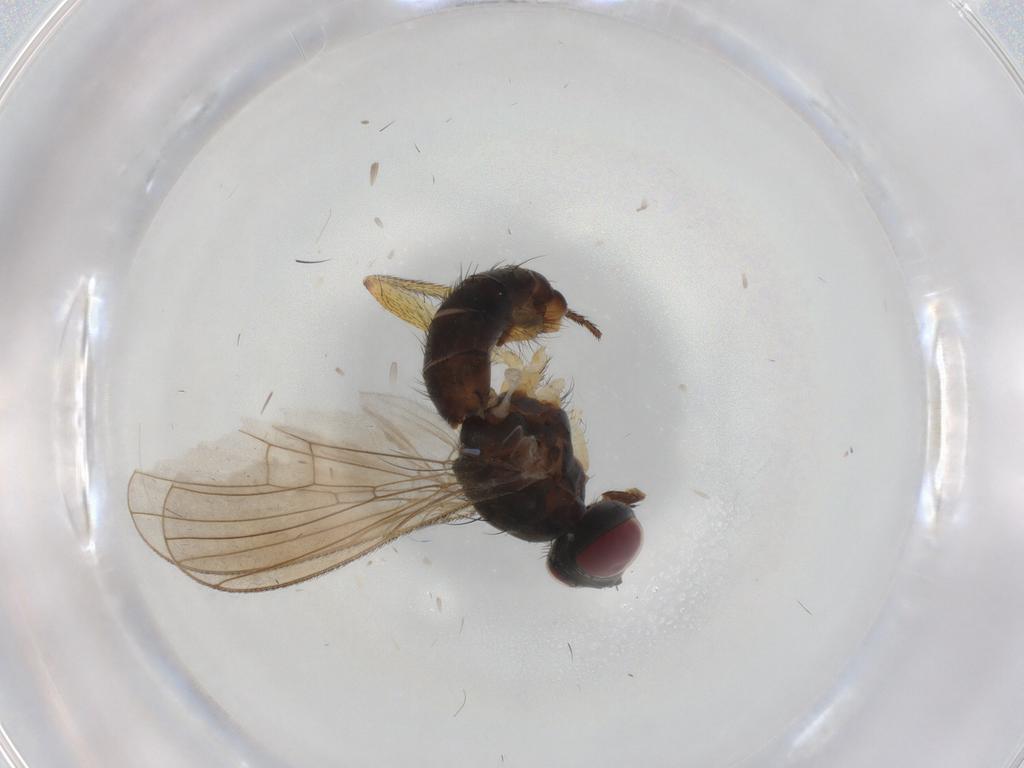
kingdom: Animalia
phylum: Arthropoda
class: Insecta
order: Diptera
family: Muscidae
